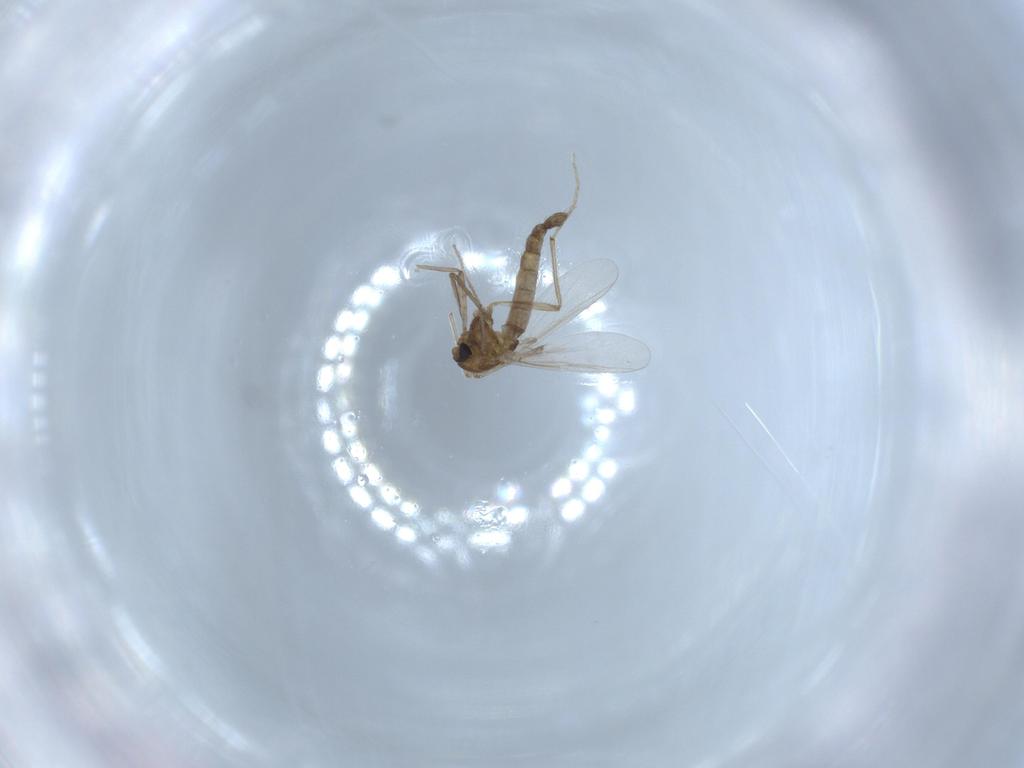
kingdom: Animalia
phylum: Arthropoda
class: Insecta
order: Diptera
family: Chironomidae
